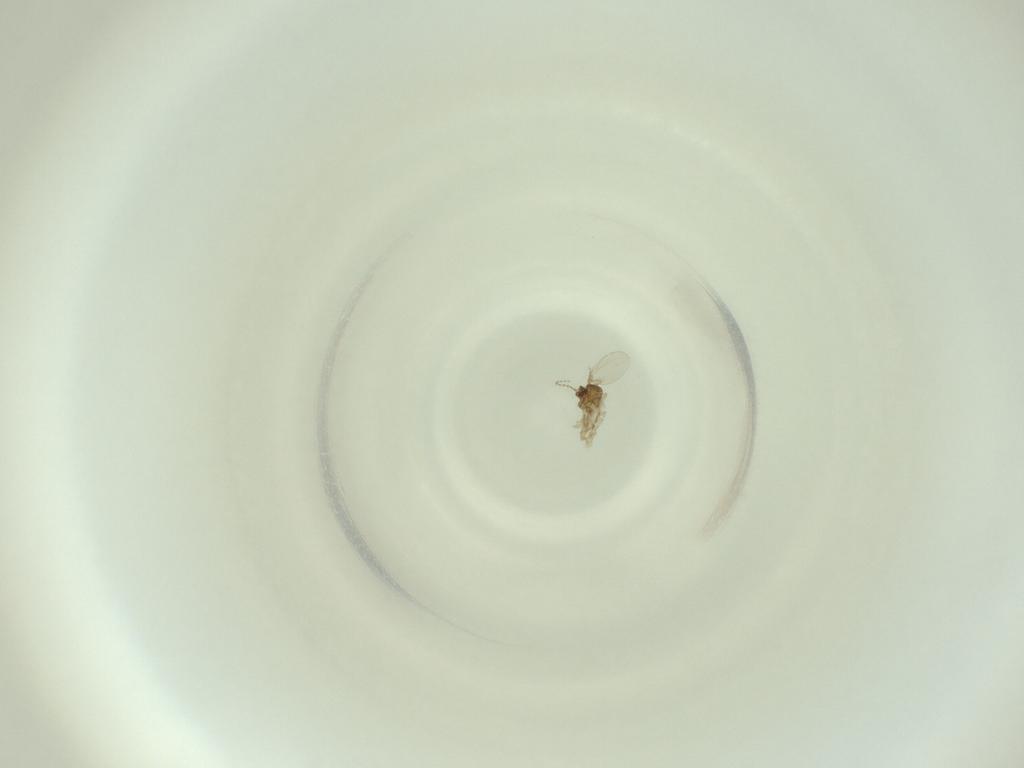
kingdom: Animalia
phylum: Arthropoda
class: Insecta
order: Diptera
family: Cecidomyiidae
